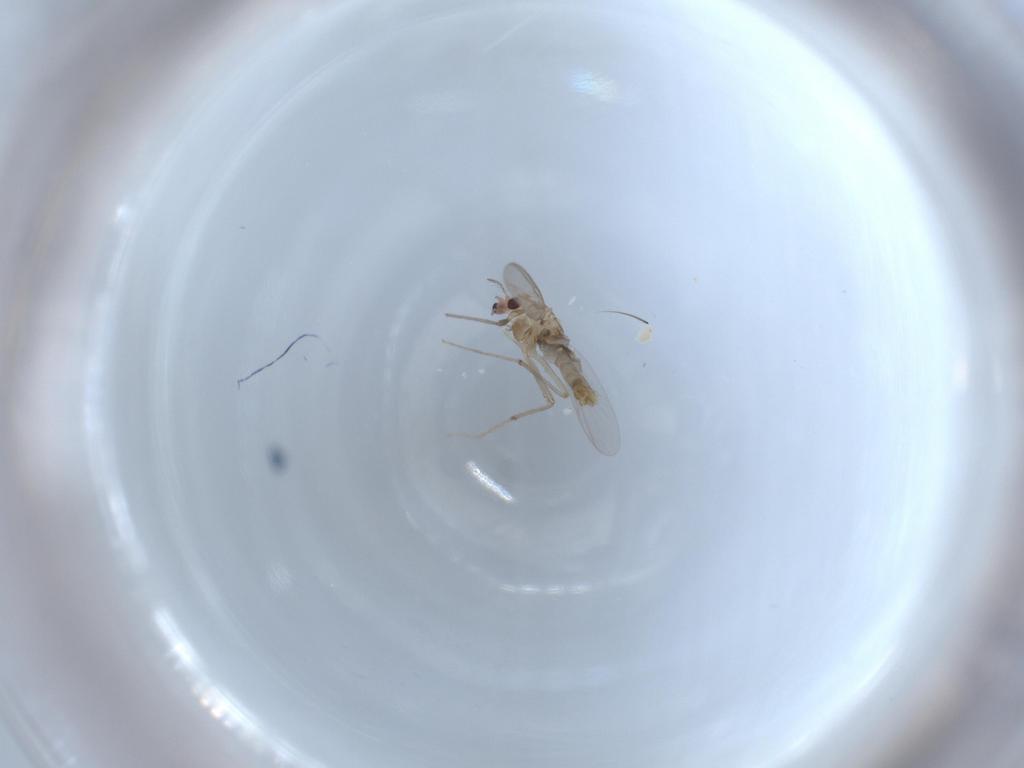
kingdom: Animalia
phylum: Arthropoda
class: Insecta
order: Diptera
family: Chironomidae
